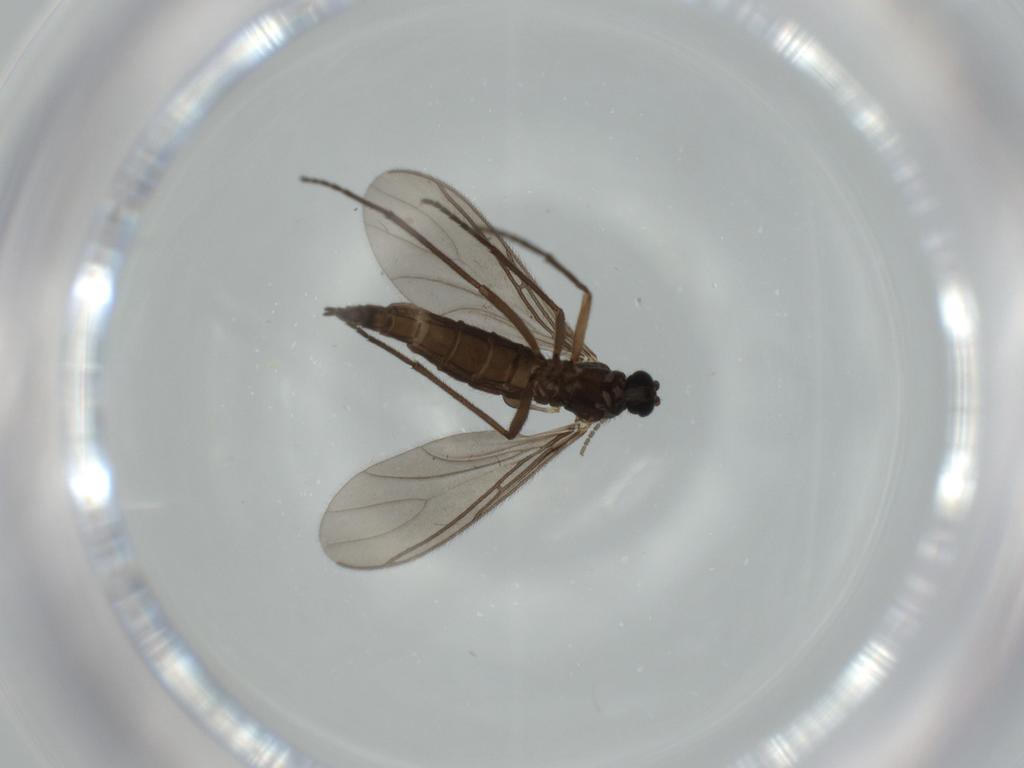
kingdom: Animalia
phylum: Arthropoda
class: Insecta
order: Diptera
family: Sciaridae
